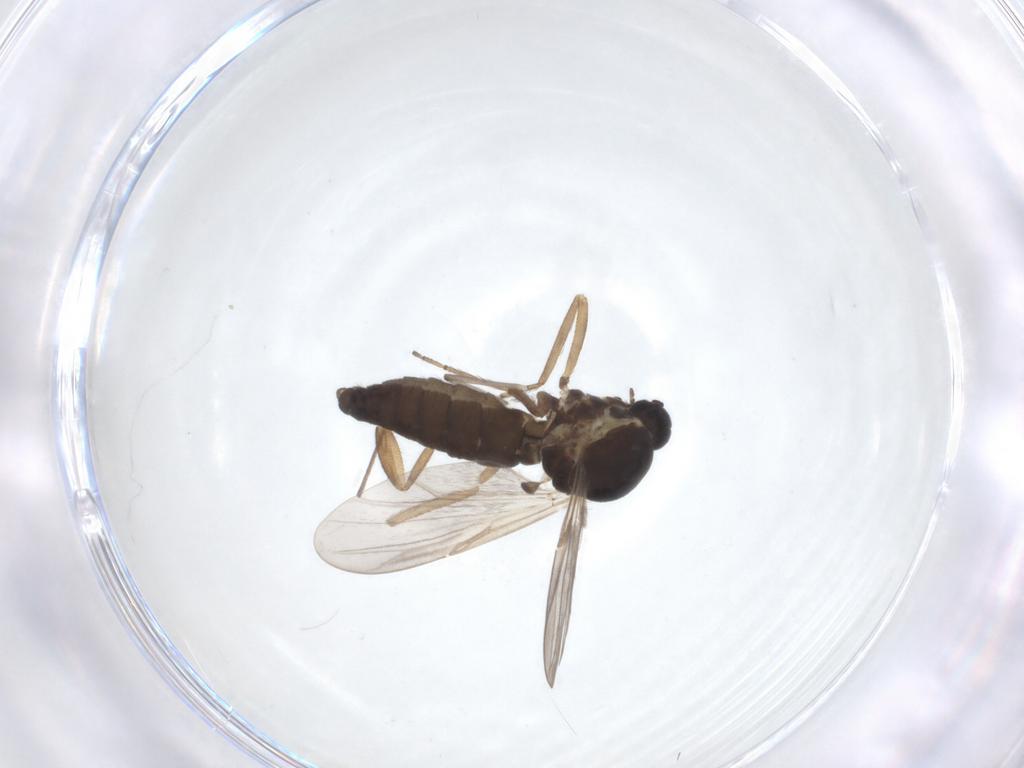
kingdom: Animalia
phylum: Arthropoda
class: Insecta
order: Diptera
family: Ceratopogonidae
